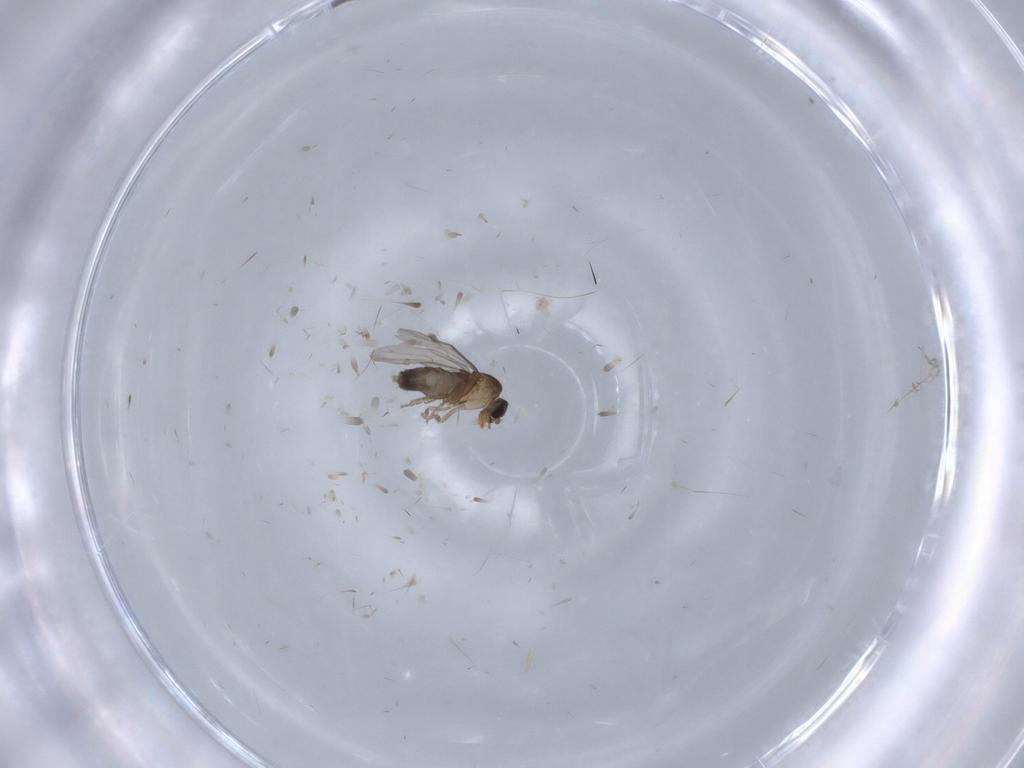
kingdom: Animalia
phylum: Arthropoda
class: Insecta
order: Diptera
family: Phoridae
